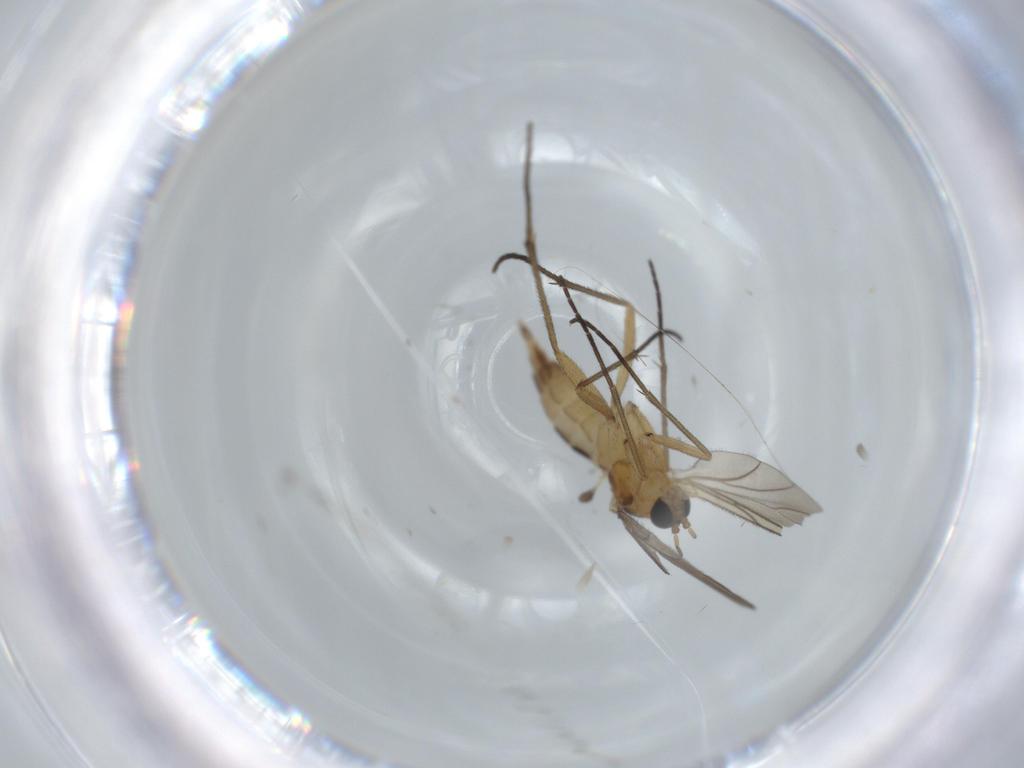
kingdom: Animalia
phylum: Arthropoda
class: Insecta
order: Diptera
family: Sciaridae
